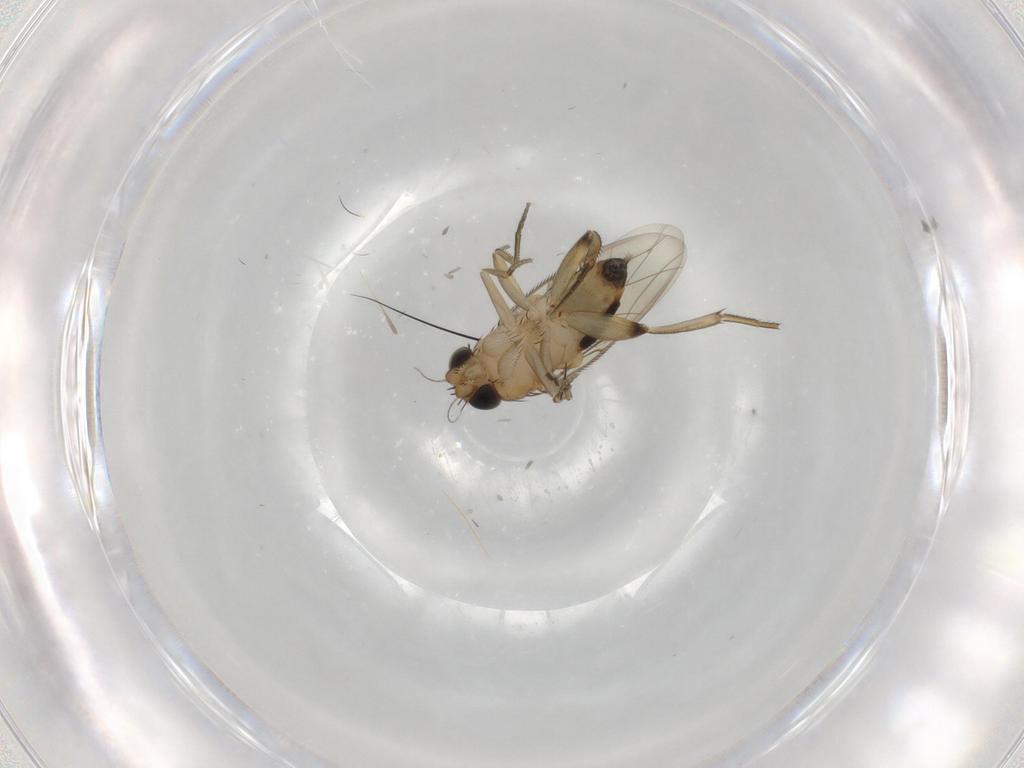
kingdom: Animalia
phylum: Arthropoda
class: Insecta
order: Diptera
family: Phoridae
